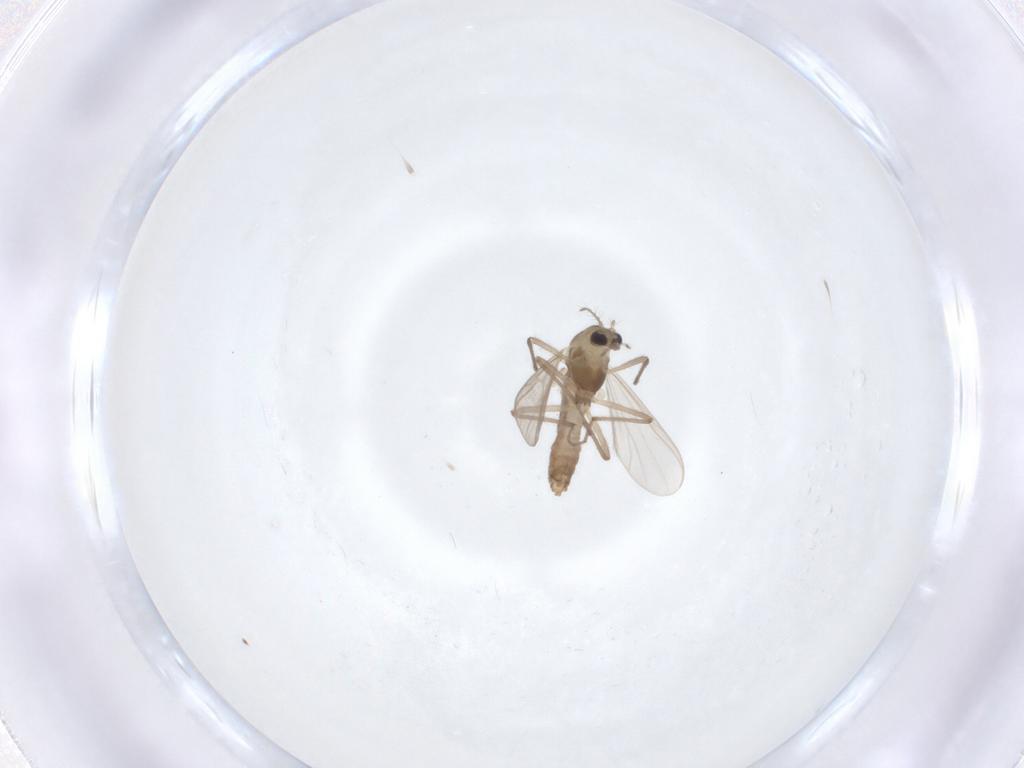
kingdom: Animalia
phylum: Arthropoda
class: Insecta
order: Diptera
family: Chironomidae
